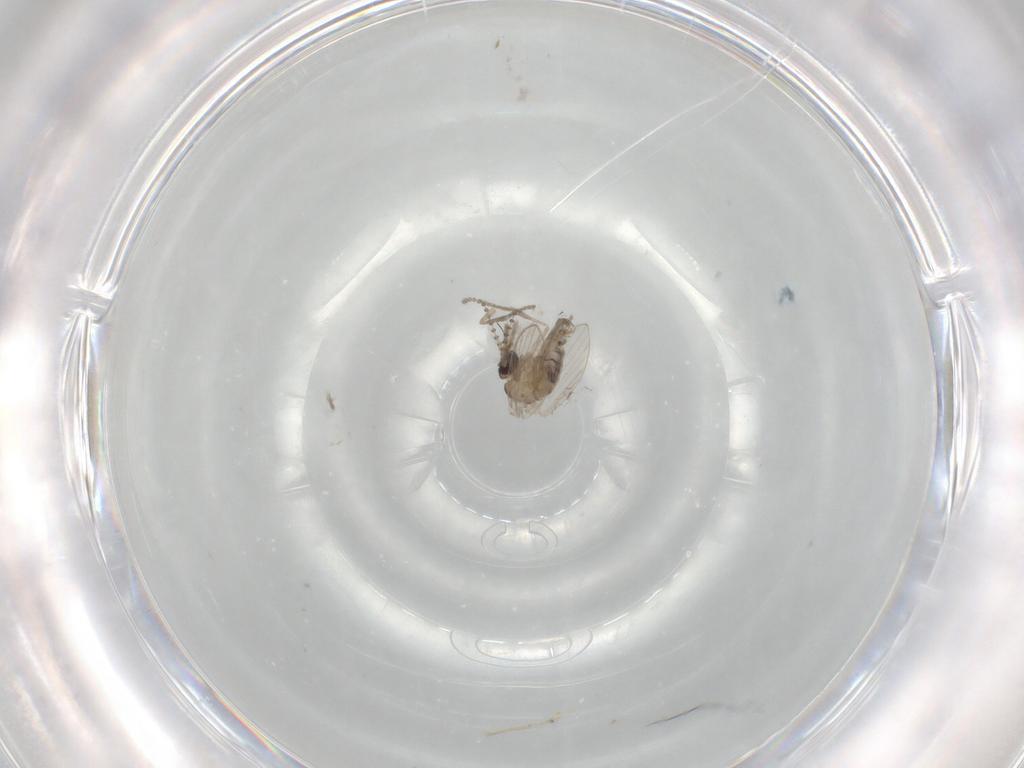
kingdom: Animalia
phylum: Arthropoda
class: Insecta
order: Diptera
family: Psychodidae
